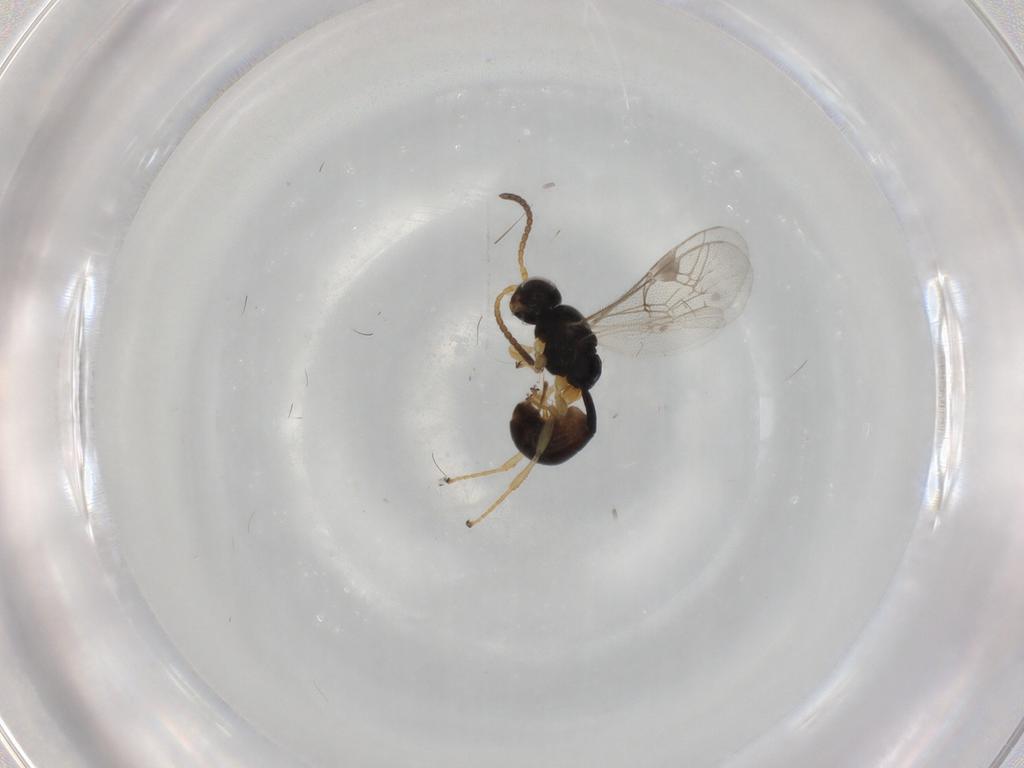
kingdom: Animalia
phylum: Arthropoda
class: Insecta
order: Hymenoptera
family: Ichneumonidae
